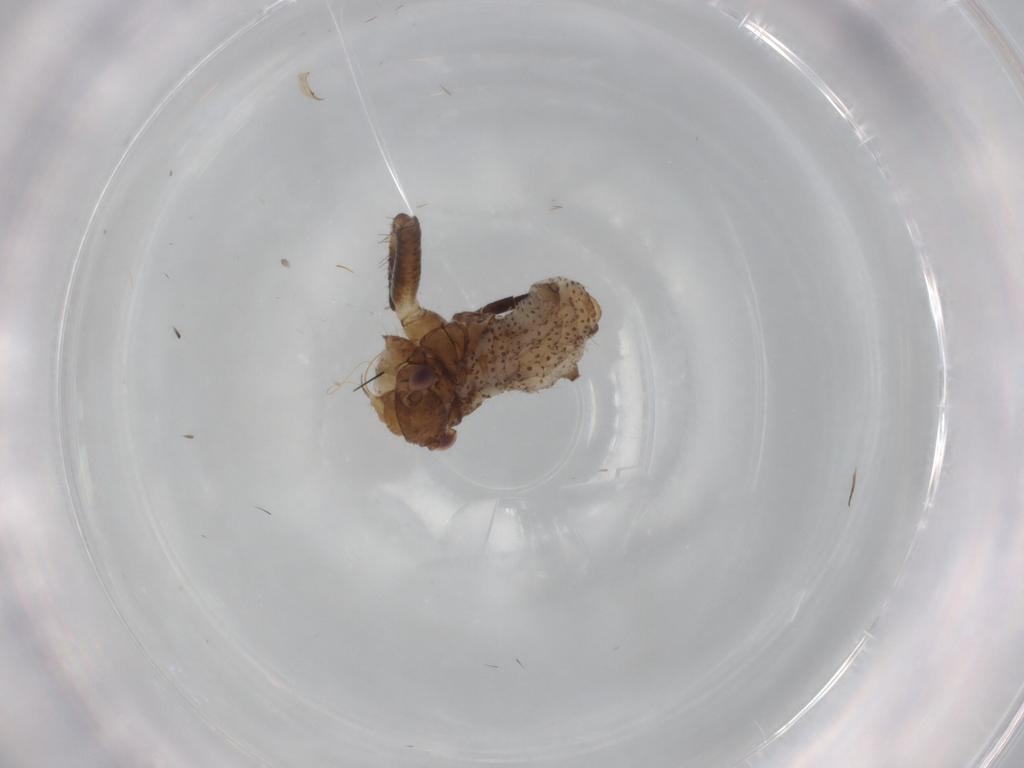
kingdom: Animalia
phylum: Arthropoda
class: Insecta
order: Hemiptera
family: Aphididae
